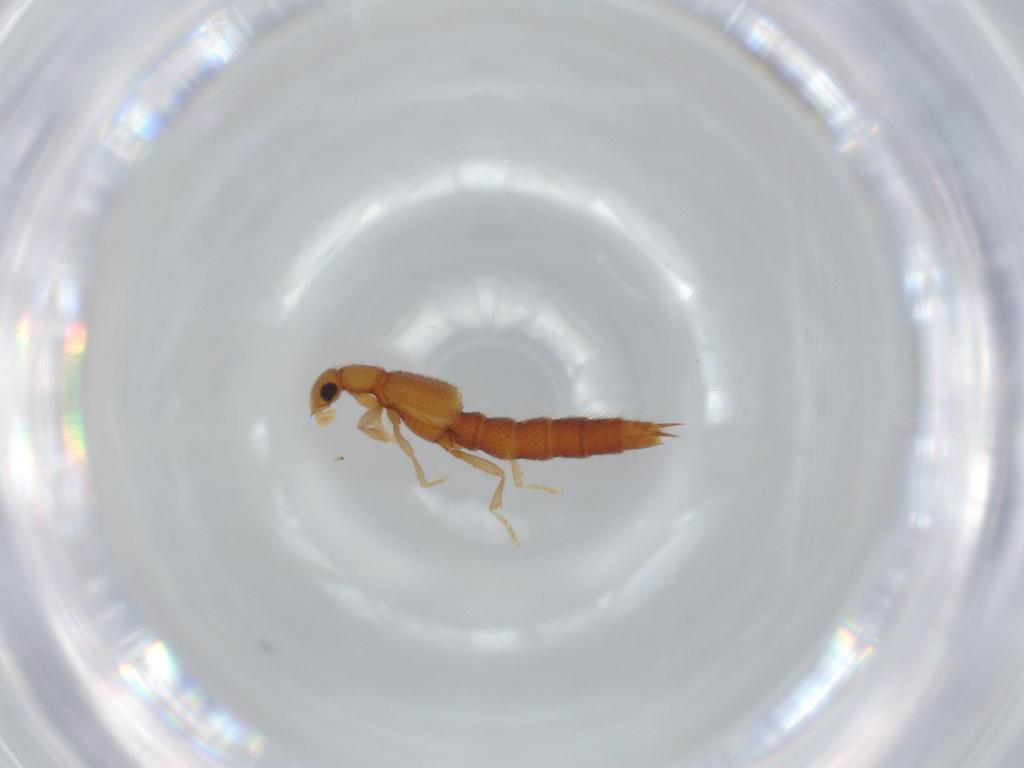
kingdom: Animalia
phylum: Arthropoda
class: Insecta
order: Coleoptera
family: Staphylinidae
